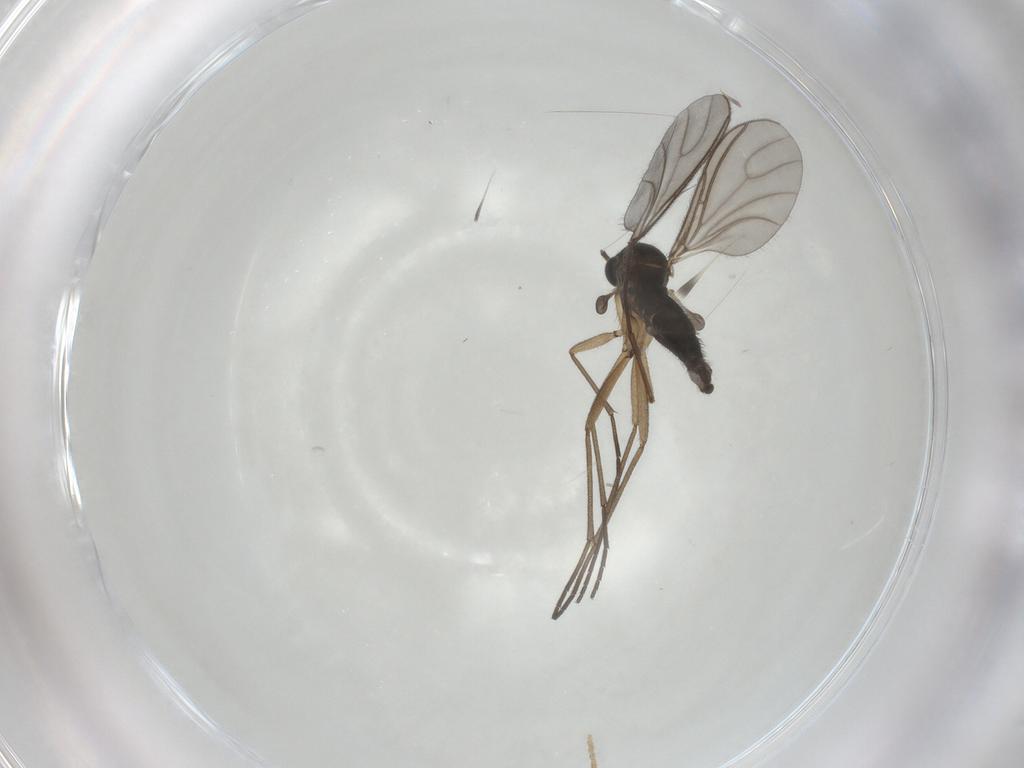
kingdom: Animalia
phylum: Arthropoda
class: Insecta
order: Diptera
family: Sciaridae
